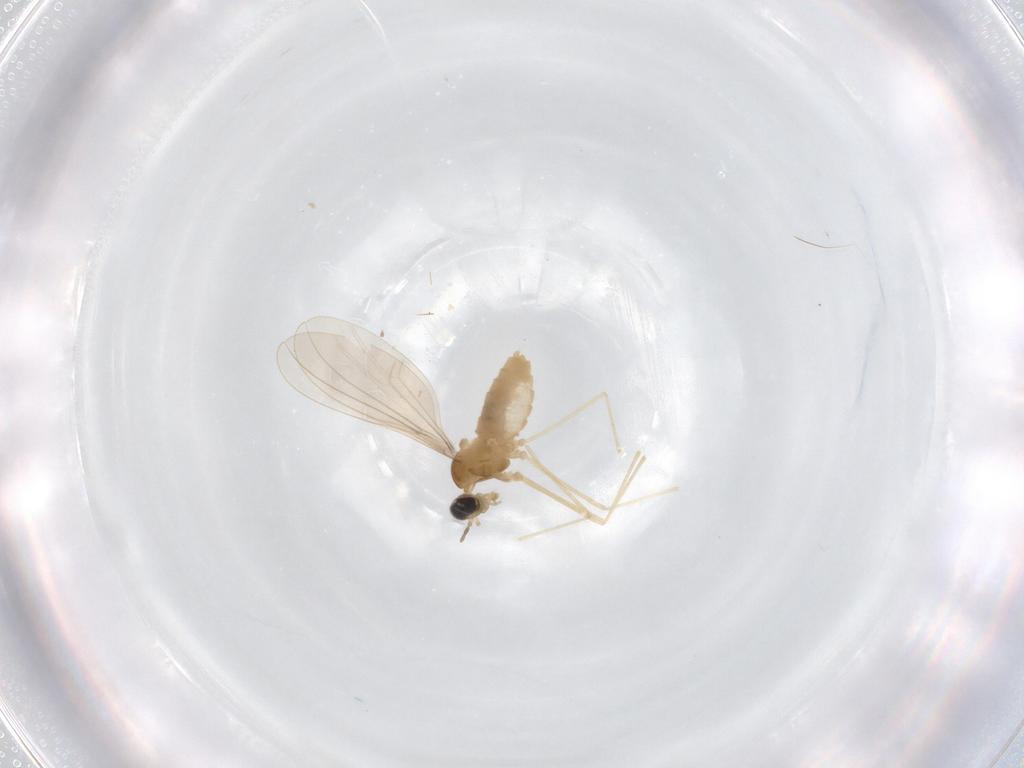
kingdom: Animalia
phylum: Arthropoda
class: Insecta
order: Diptera
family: Cecidomyiidae
